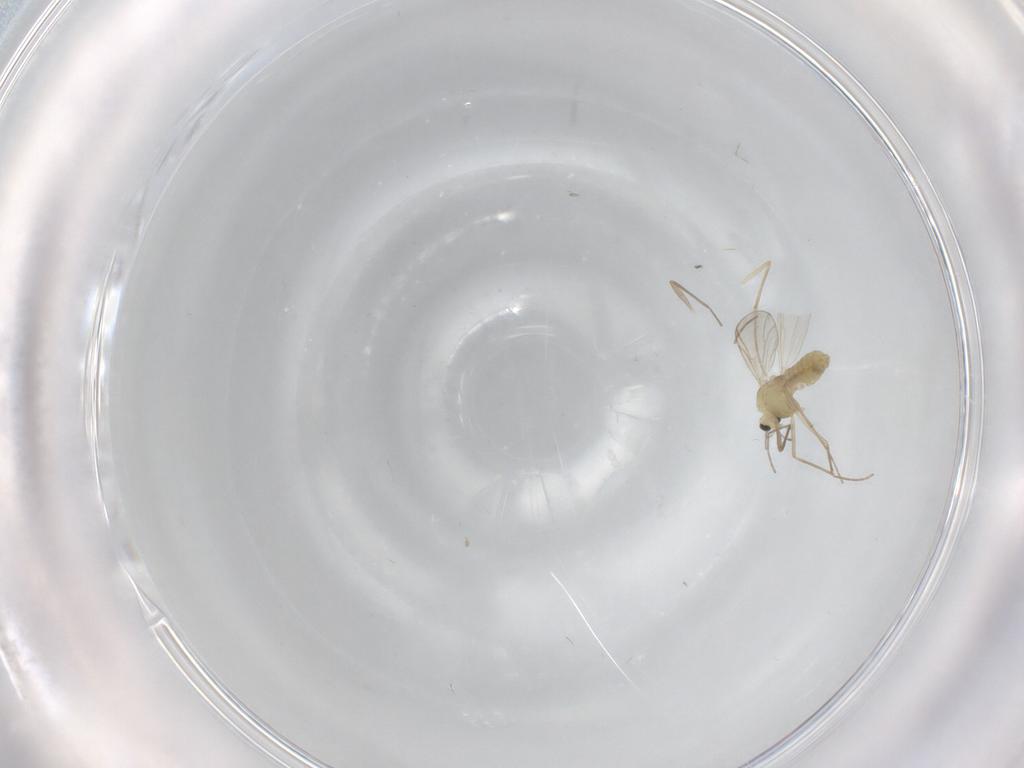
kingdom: Animalia
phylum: Arthropoda
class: Insecta
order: Diptera
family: Chironomidae
